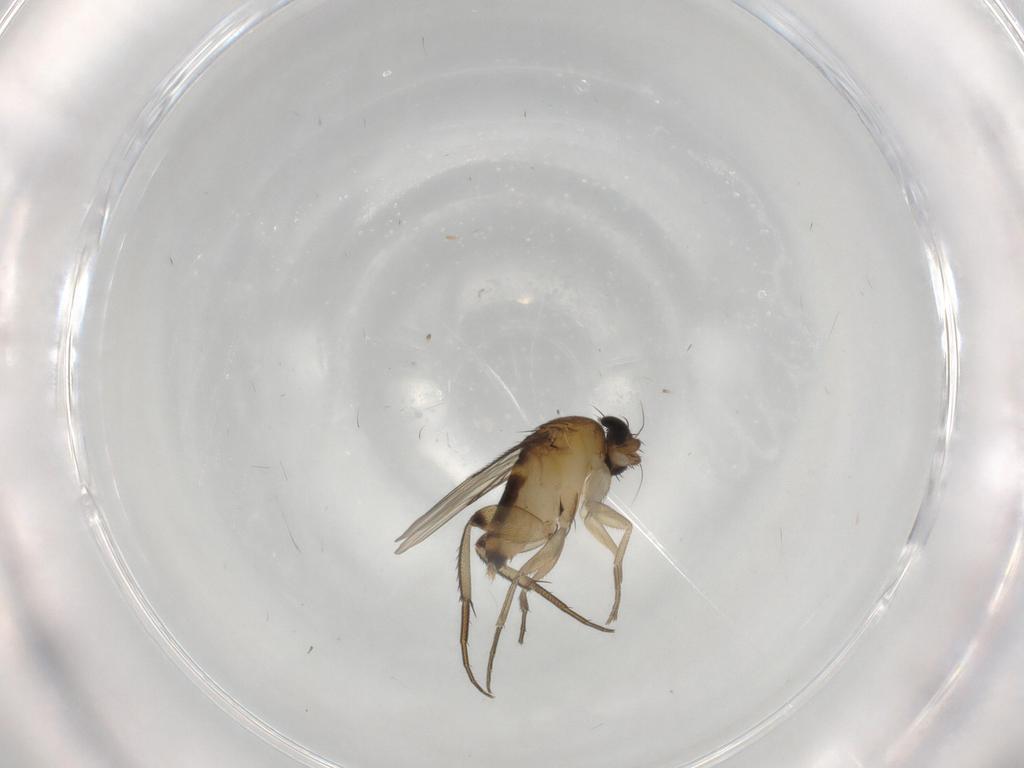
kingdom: Animalia
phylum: Arthropoda
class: Insecta
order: Diptera
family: Phoridae
